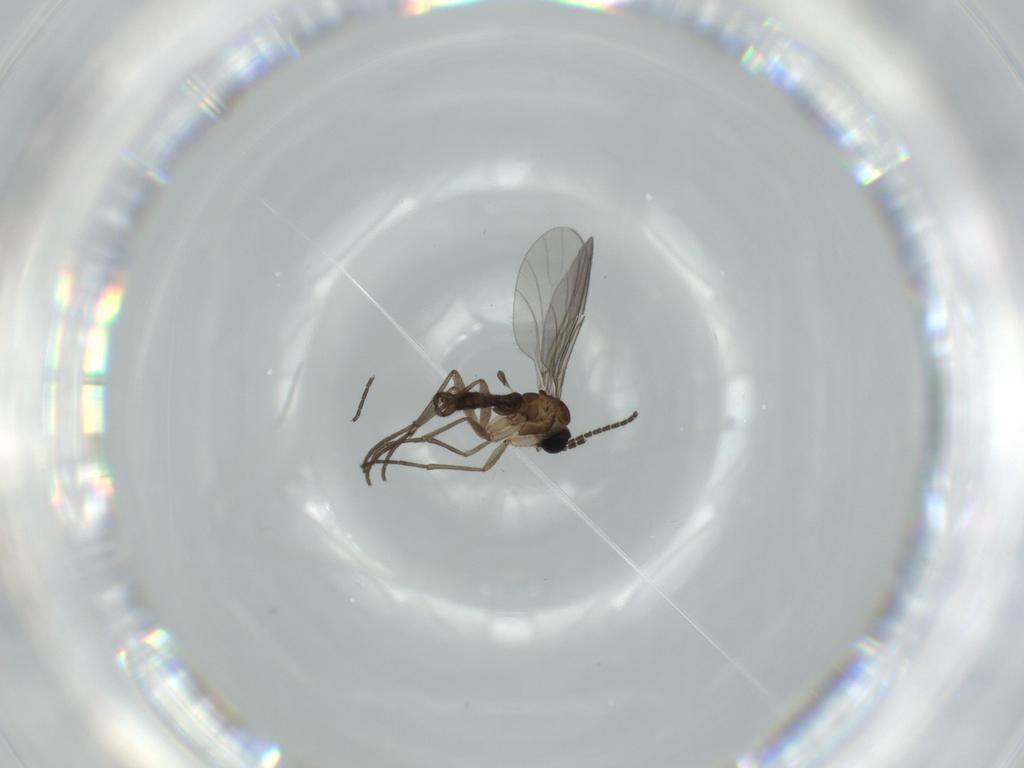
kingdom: Animalia
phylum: Arthropoda
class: Insecta
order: Diptera
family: Sciaridae
